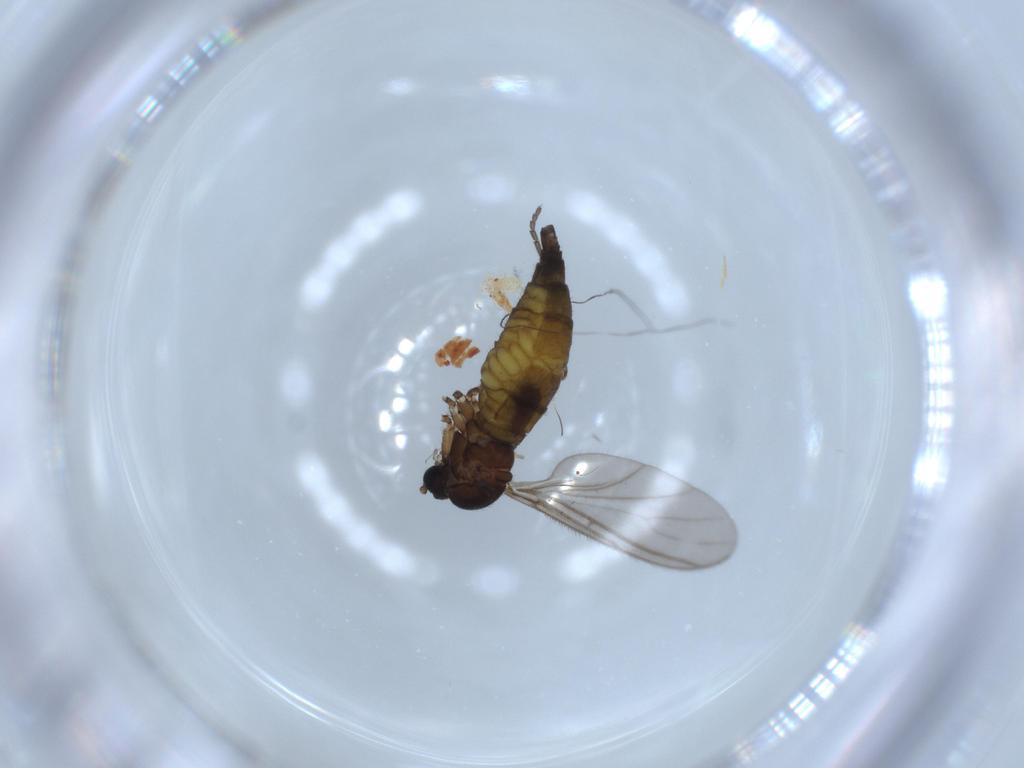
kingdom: Animalia
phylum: Arthropoda
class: Insecta
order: Diptera
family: Sciaridae
